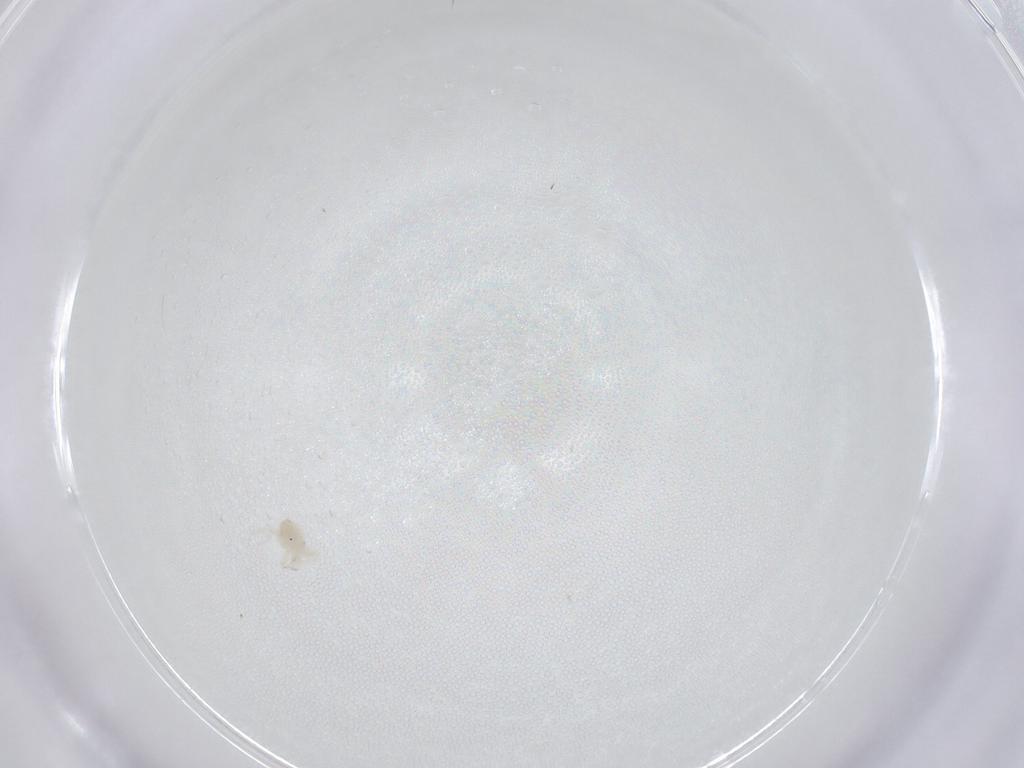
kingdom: Animalia
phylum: Arthropoda
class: Arachnida
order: Trombidiformes
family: Anystidae
